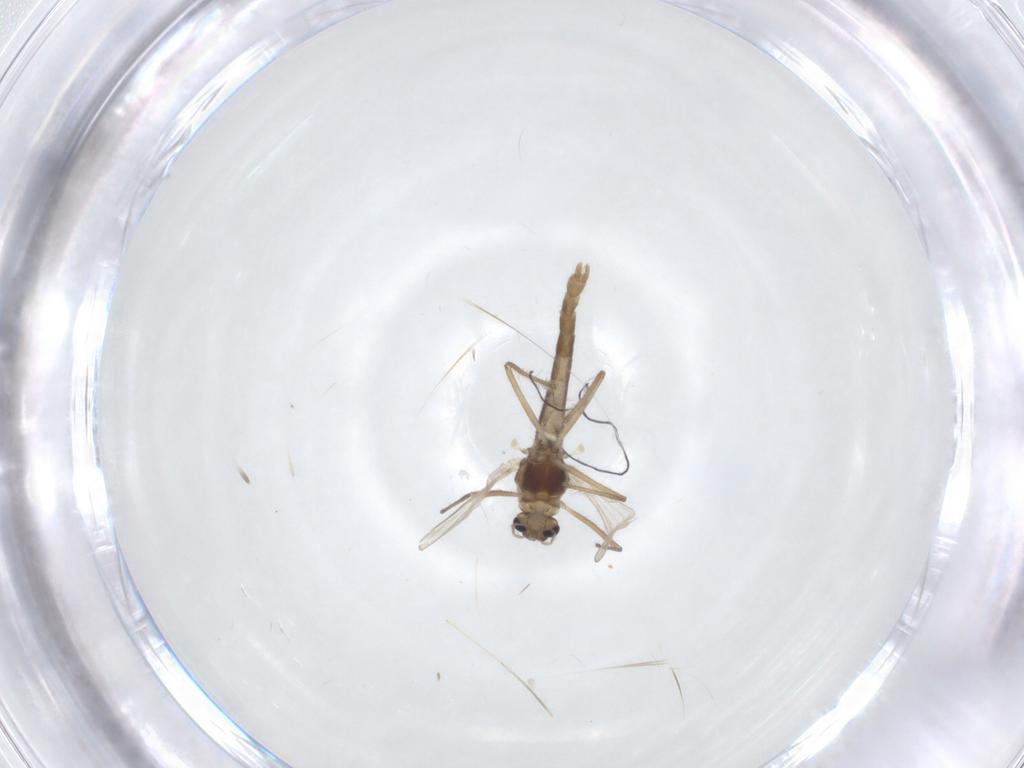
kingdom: Animalia
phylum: Arthropoda
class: Insecta
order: Diptera
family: Chironomidae
